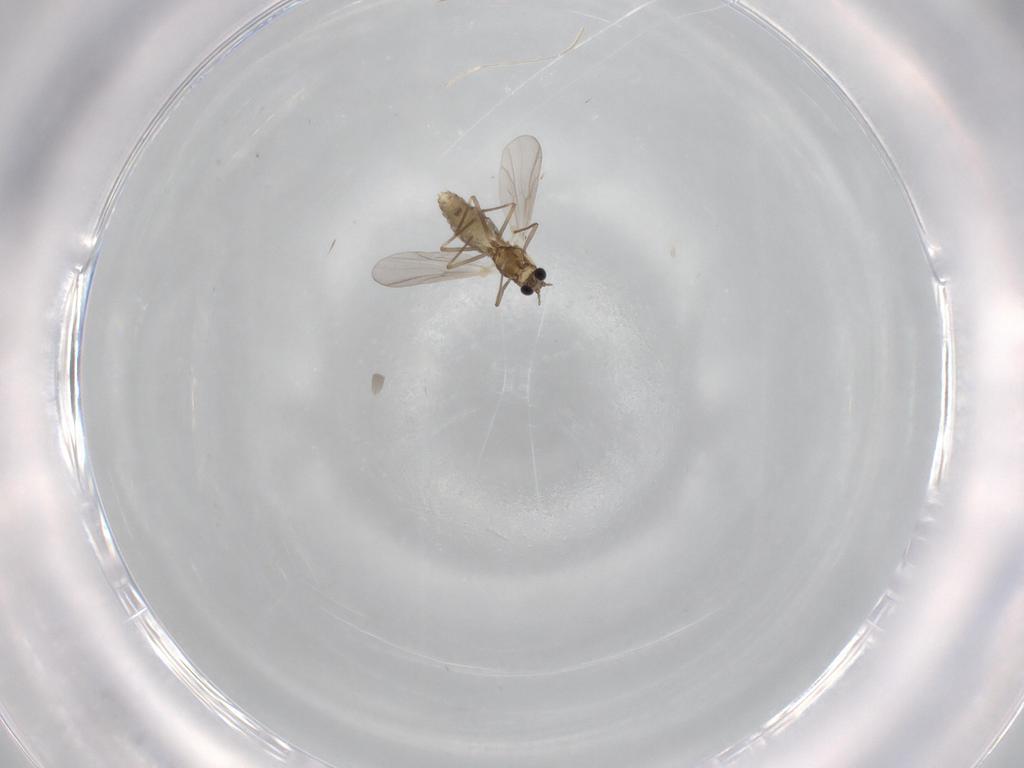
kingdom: Animalia
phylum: Arthropoda
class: Insecta
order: Diptera
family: Chironomidae
